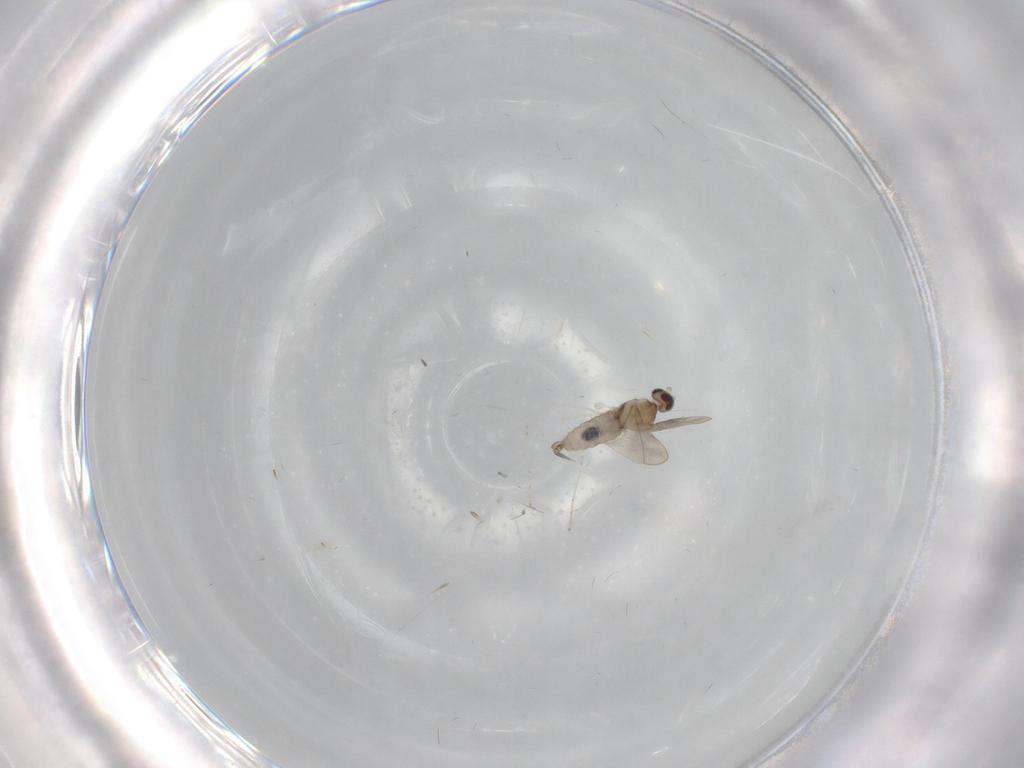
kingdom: Animalia
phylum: Arthropoda
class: Insecta
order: Diptera
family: Cecidomyiidae
